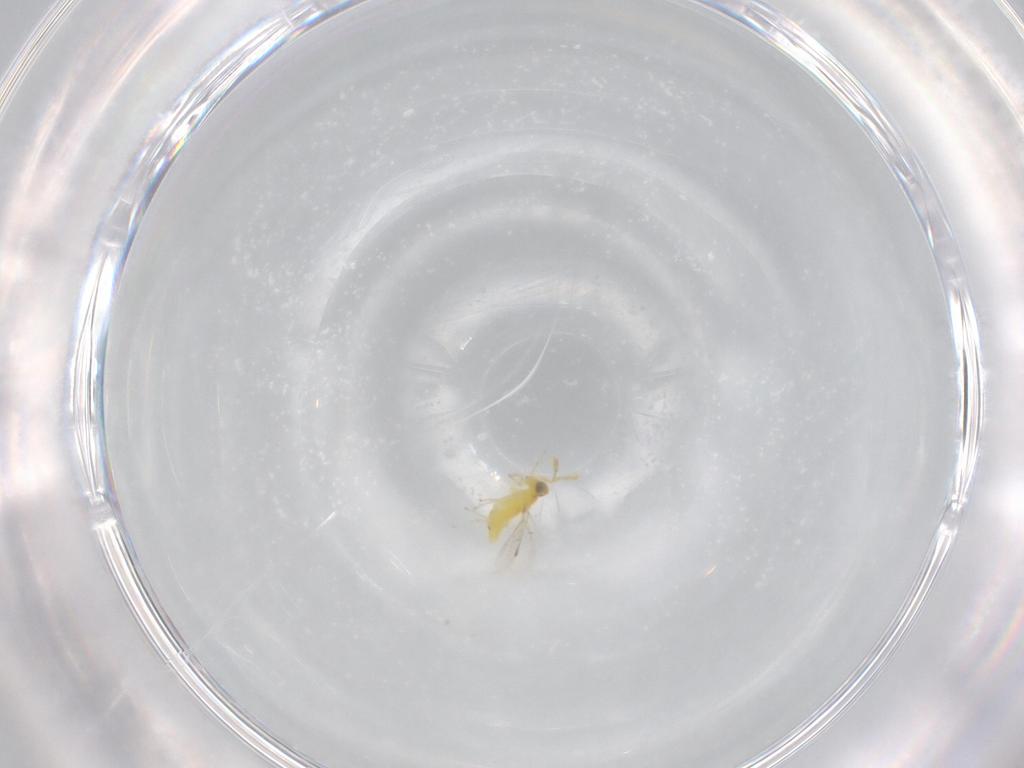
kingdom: Animalia
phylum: Arthropoda
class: Insecta
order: Hymenoptera
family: Aphelinidae
